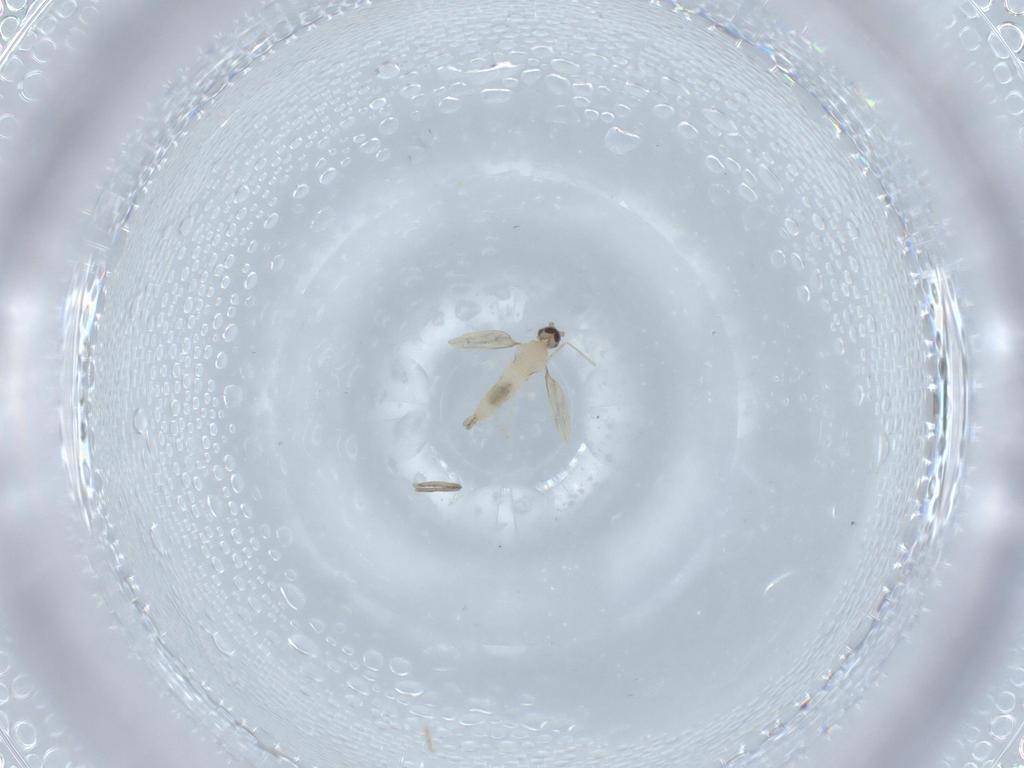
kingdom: Animalia
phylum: Arthropoda
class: Insecta
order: Diptera
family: Cecidomyiidae
